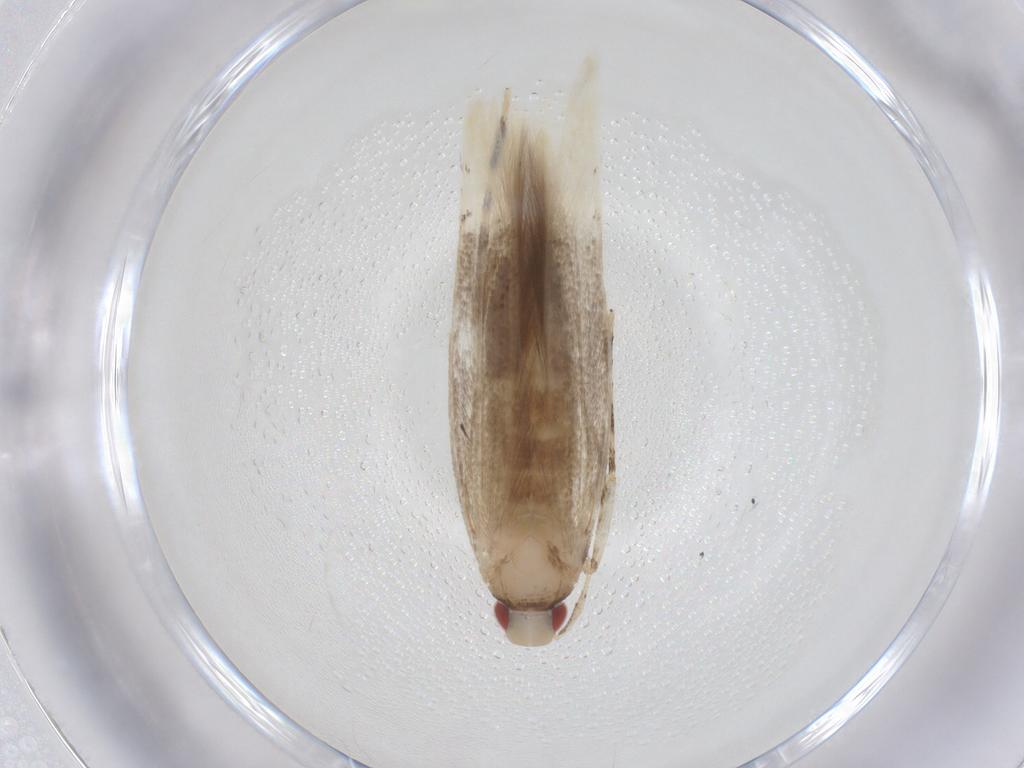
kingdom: Animalia
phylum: Arthropoda
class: Insecta
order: Lepidoptera
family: Cosmopterigidae
